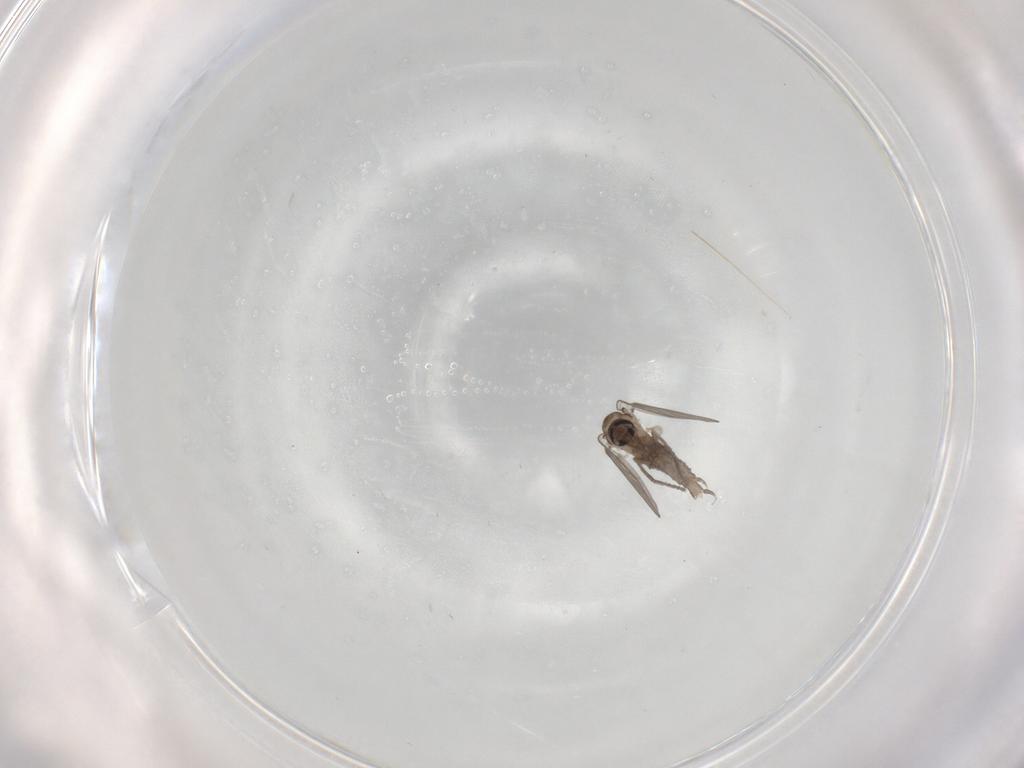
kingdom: Animalia
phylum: Arthropoda
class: Insecta
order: Diptera
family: Psychodidae
